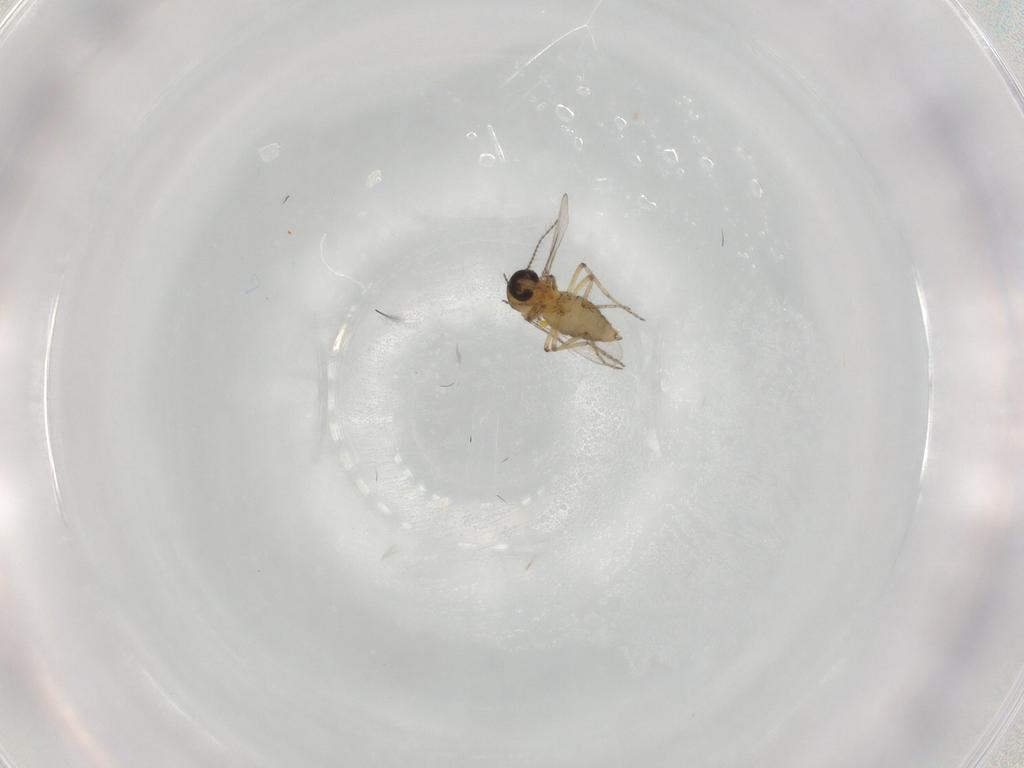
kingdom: Animalia
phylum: Arthropoda
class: Insecta
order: Diptera
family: Ceratopogonidae
